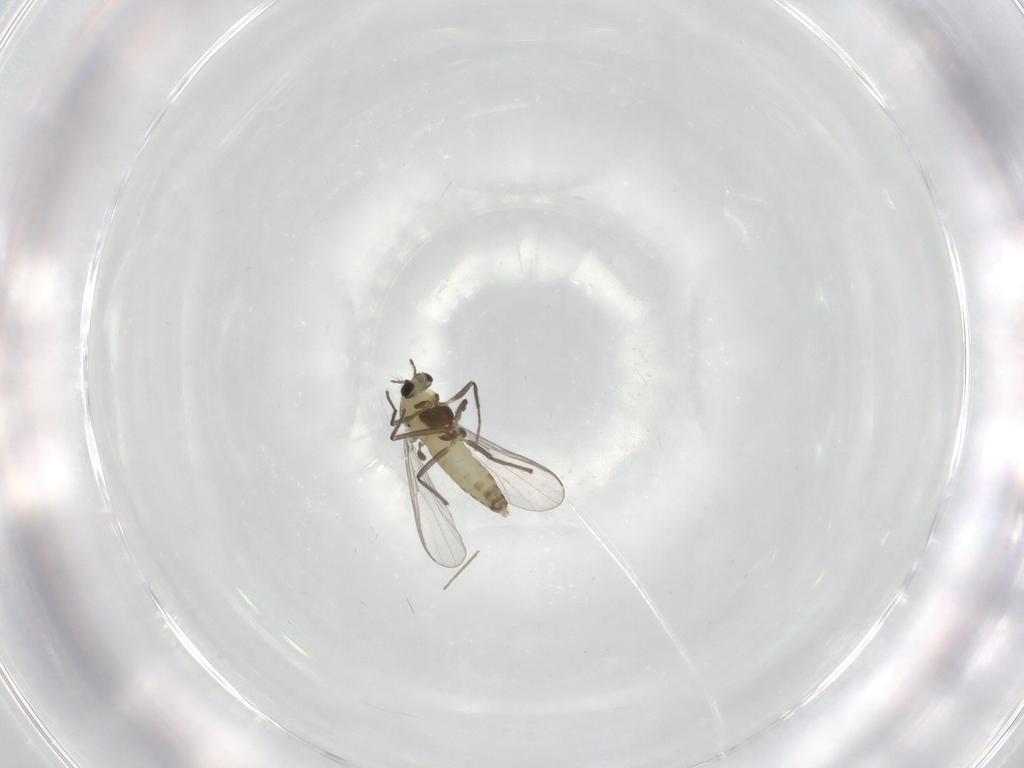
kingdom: Animalia
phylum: Arthropoda
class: Insecta
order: Diptera
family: Chironomidae
